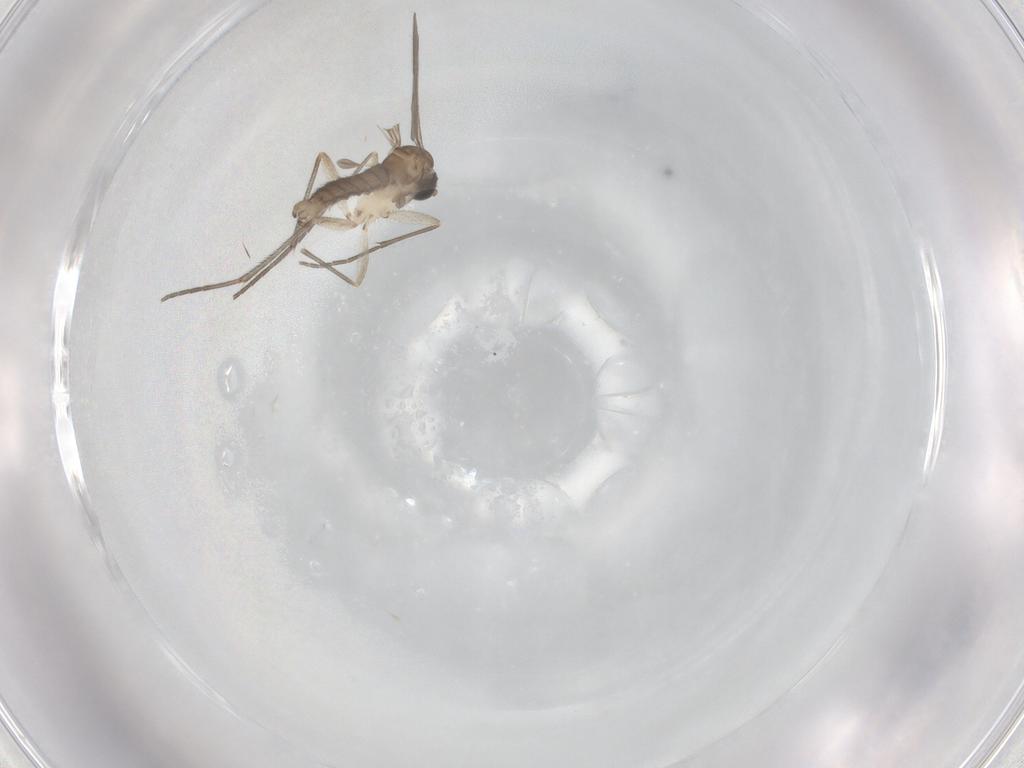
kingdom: Animalia
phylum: Arthropoda
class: Insecta
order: Diptera
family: Sciaridae
